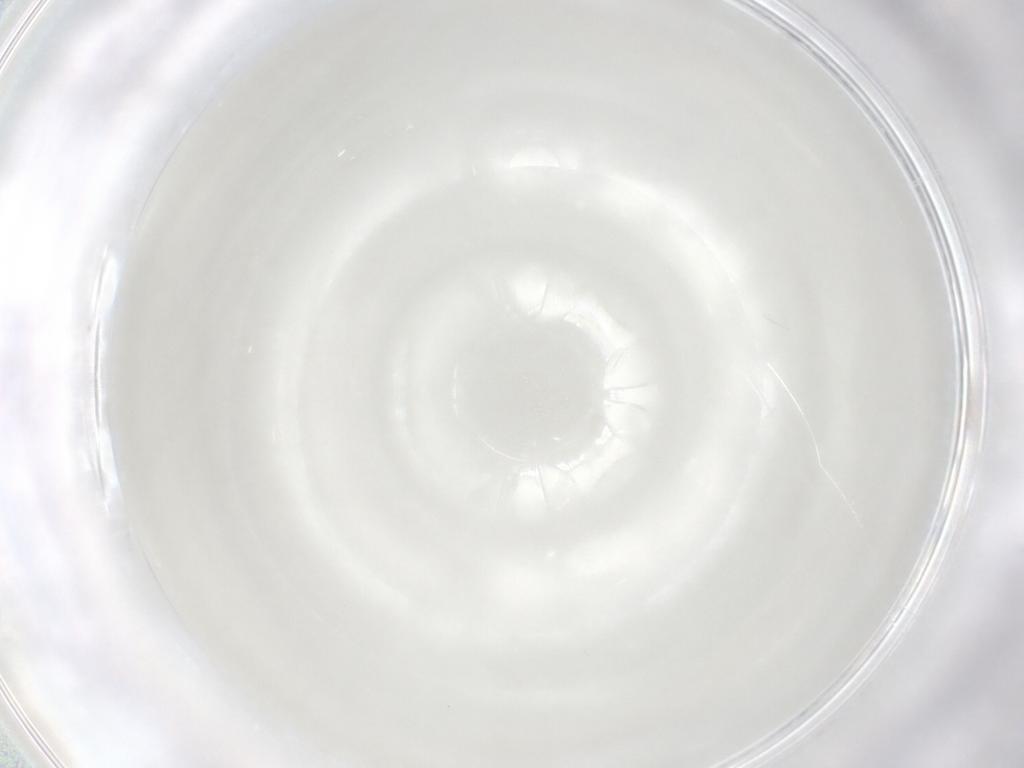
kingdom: Animalia
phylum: Arthropoda
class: Insecta
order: Diptera
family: Cecidomyiidae
